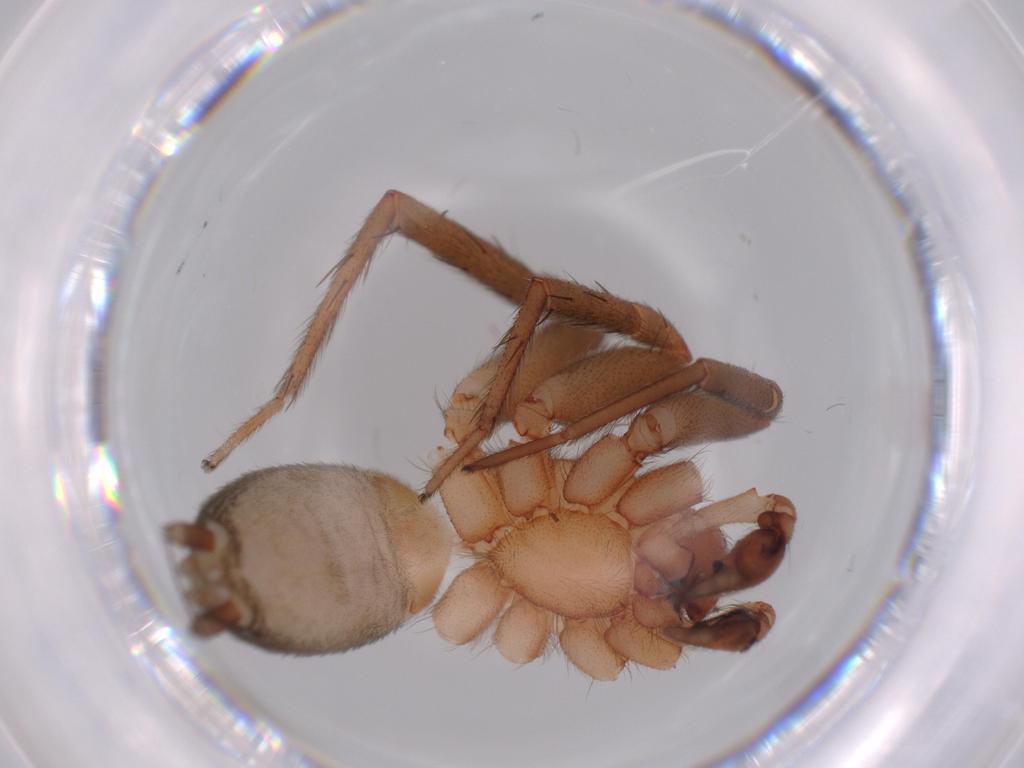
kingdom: Animalia
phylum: Arthropoda
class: Arachnida
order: Araneae
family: Gnaphosidae
